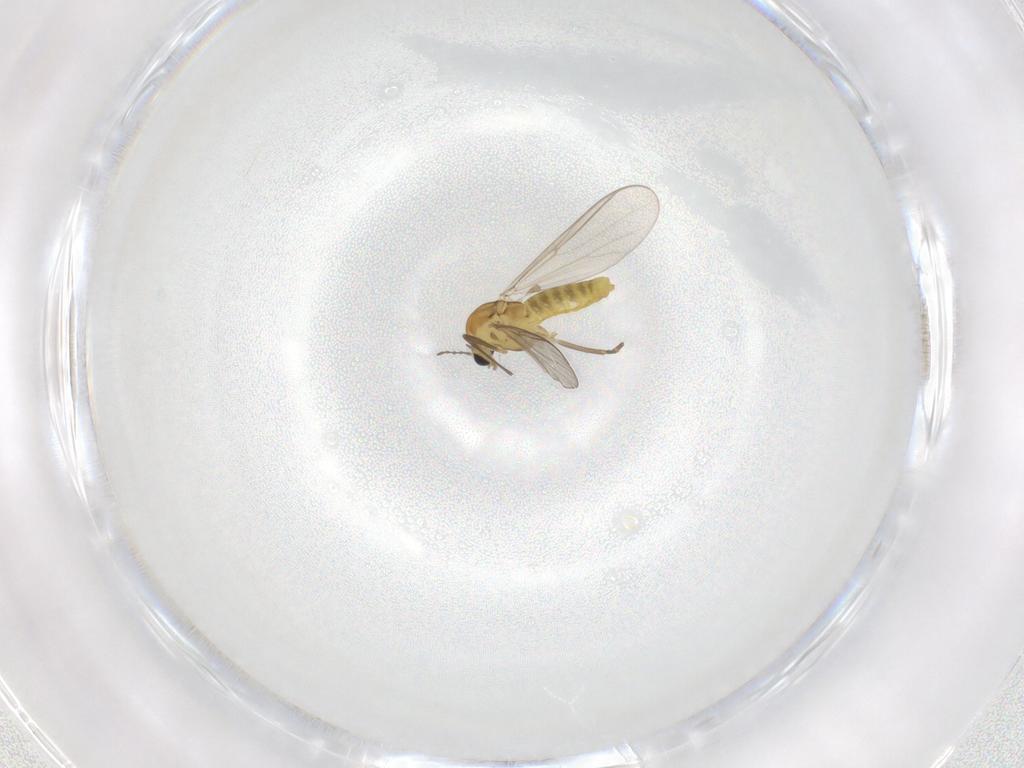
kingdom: Animalia
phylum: Arthropoda
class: Insecta
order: Diptera
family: Chironomidae
